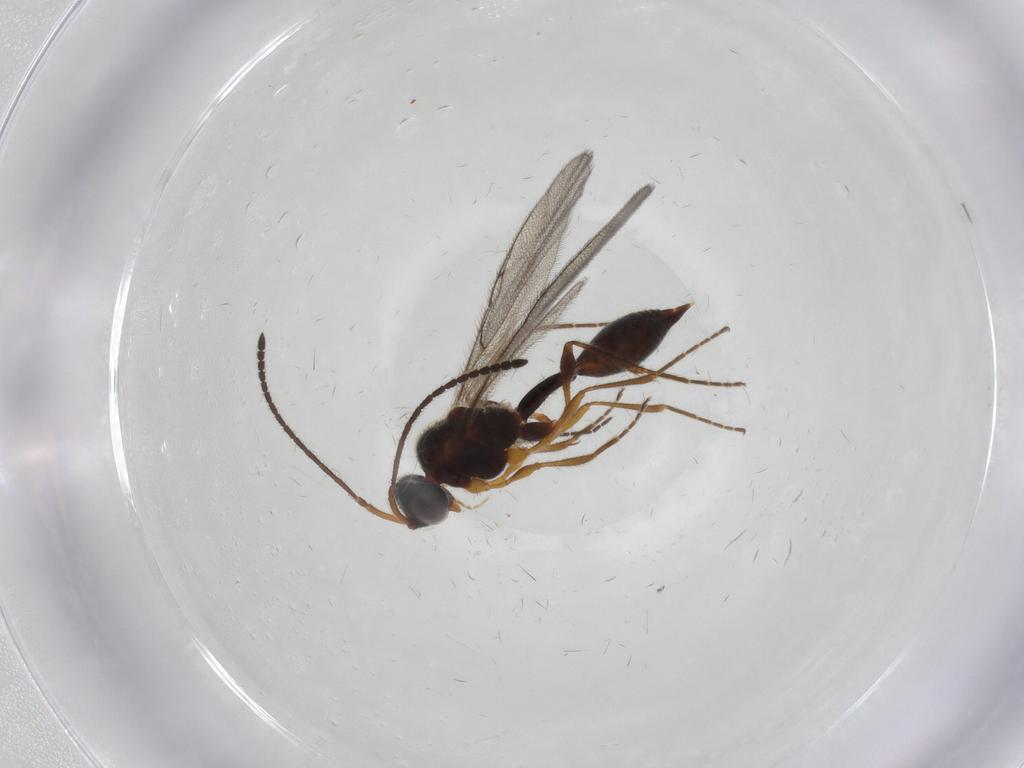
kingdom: Animalia
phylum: Arthropoda
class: Insecta
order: Hymenoptera
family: Diapriidae
